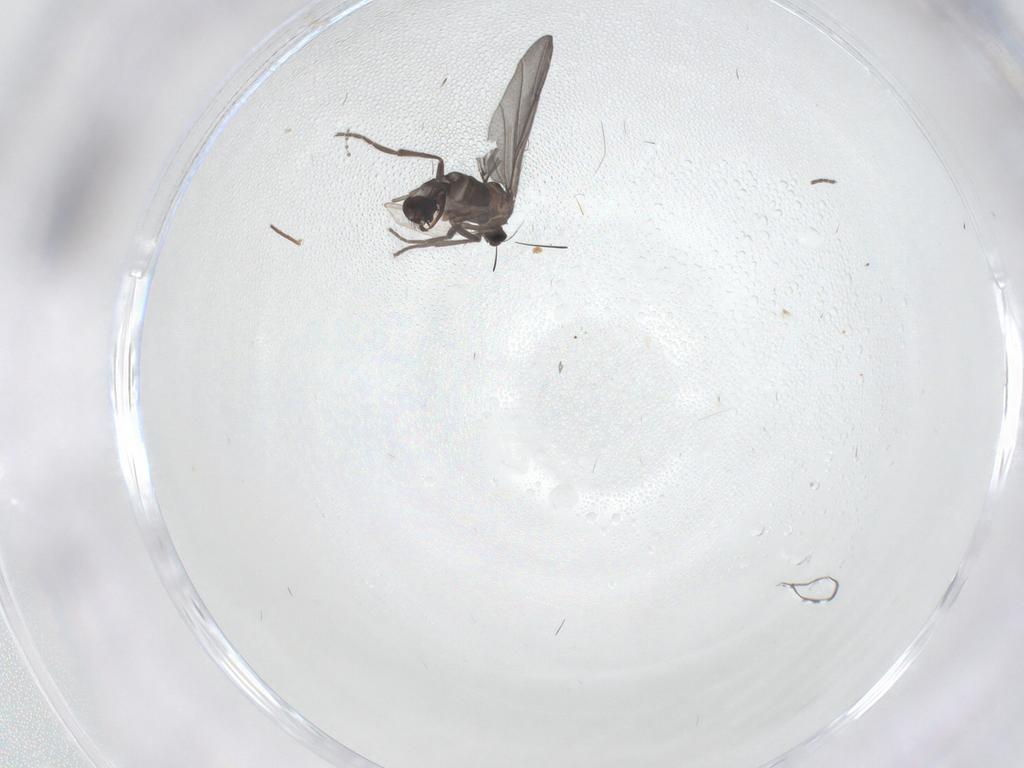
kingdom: Animalia
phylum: Arthropoda
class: Insecta
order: Diptera
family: Phoridae
